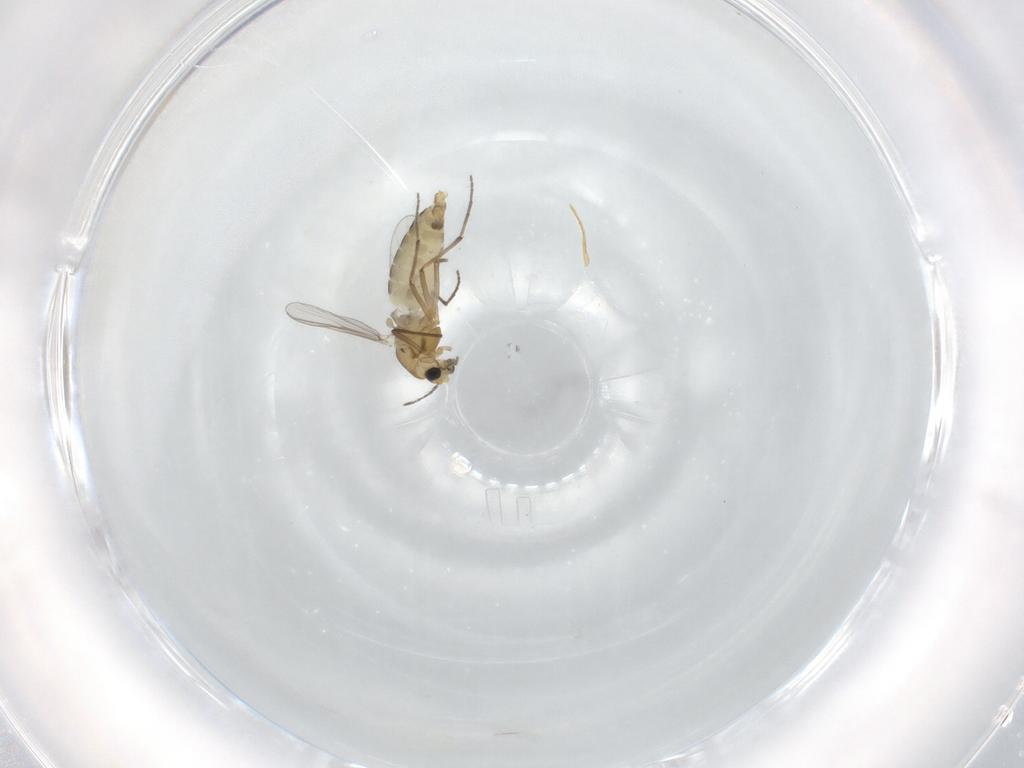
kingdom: Animalia
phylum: Arthropoda
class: Insecta
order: Diptera
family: Chironomidae
